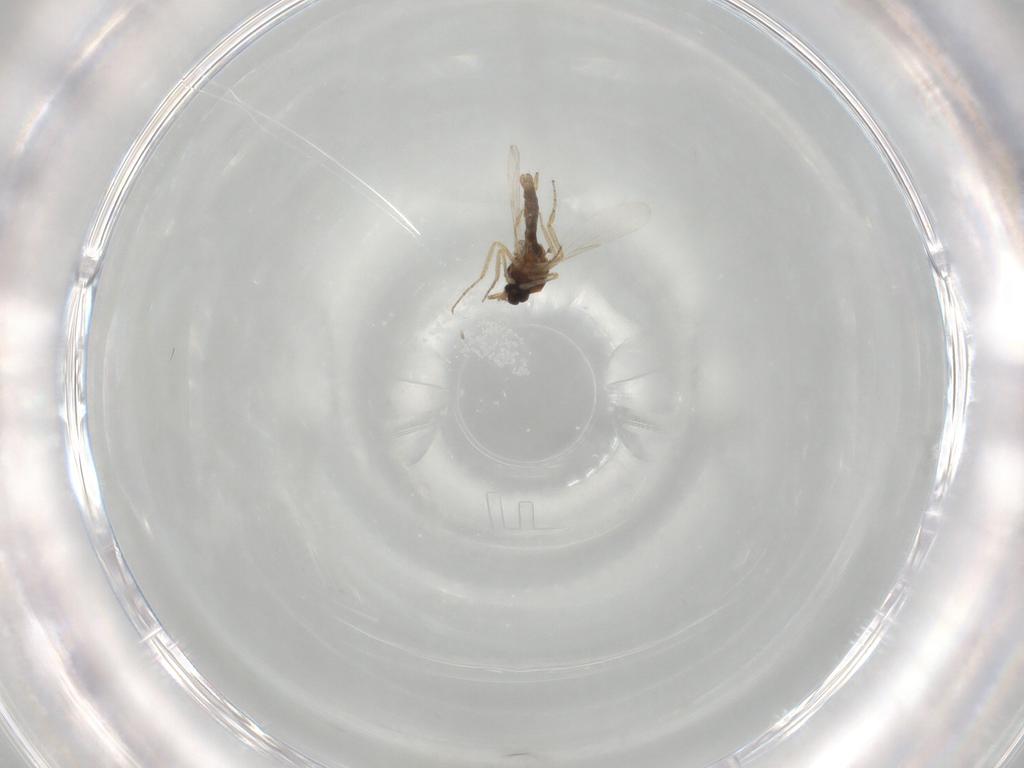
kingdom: Animalia
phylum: Arthropoda
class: Insecta
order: Diptera
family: Ceratopogonidae
